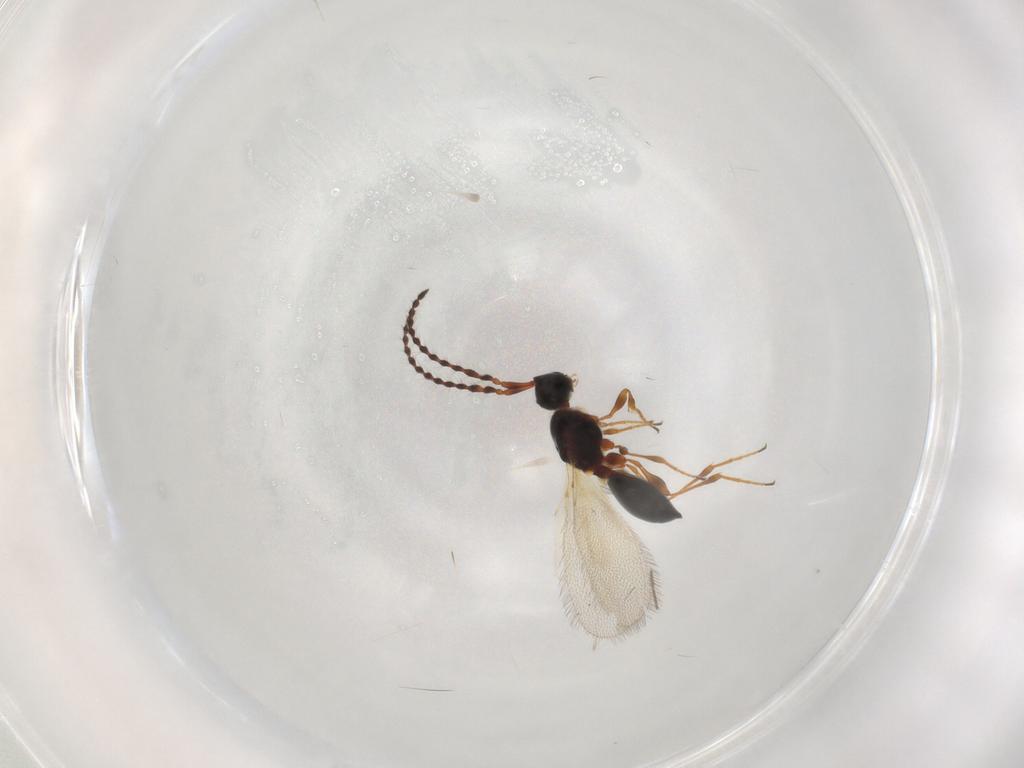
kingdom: Animalia
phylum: Arthropoda
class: Insecta
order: Hymenoptera
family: Diapriidae
